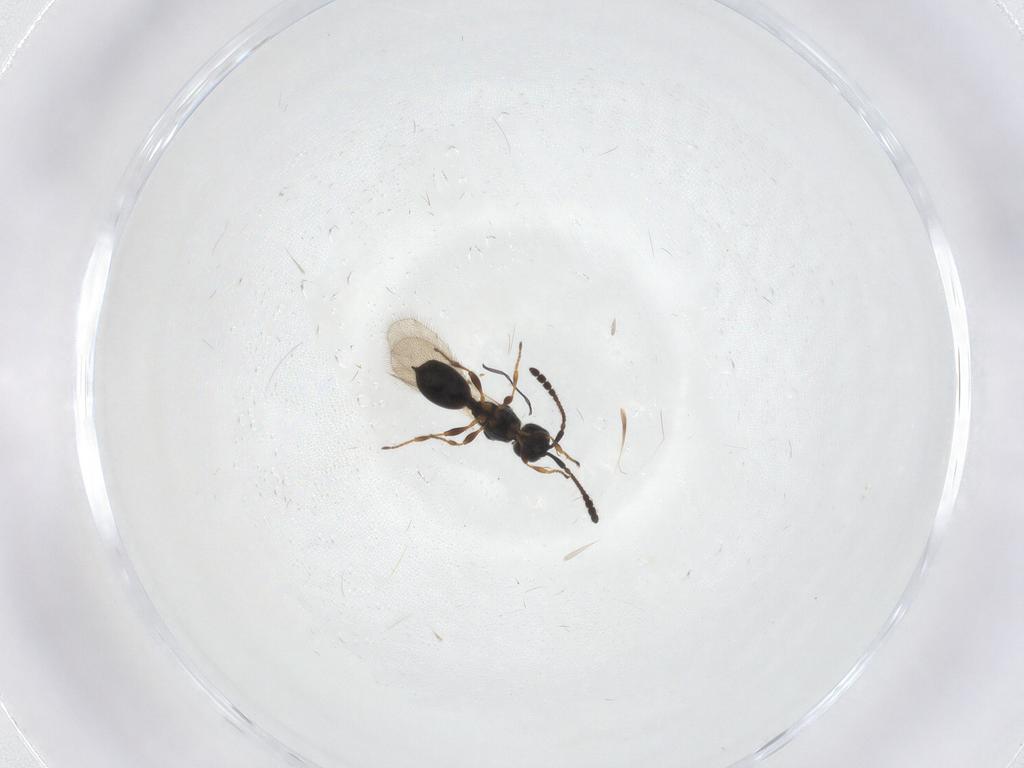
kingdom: Animalia
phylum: Arthropoda
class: Insecta
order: Hymenoptera
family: Diapriidae
